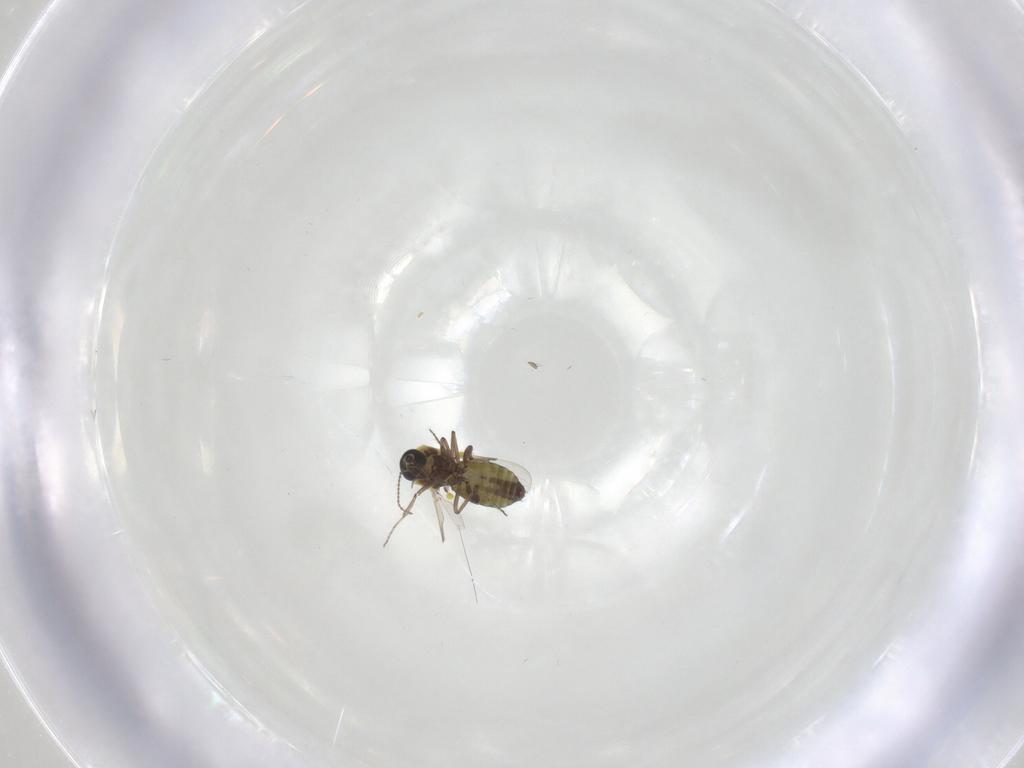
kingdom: Animalia
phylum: Arthropoda
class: Insecta
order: Diptera
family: Ceratopogonidae
